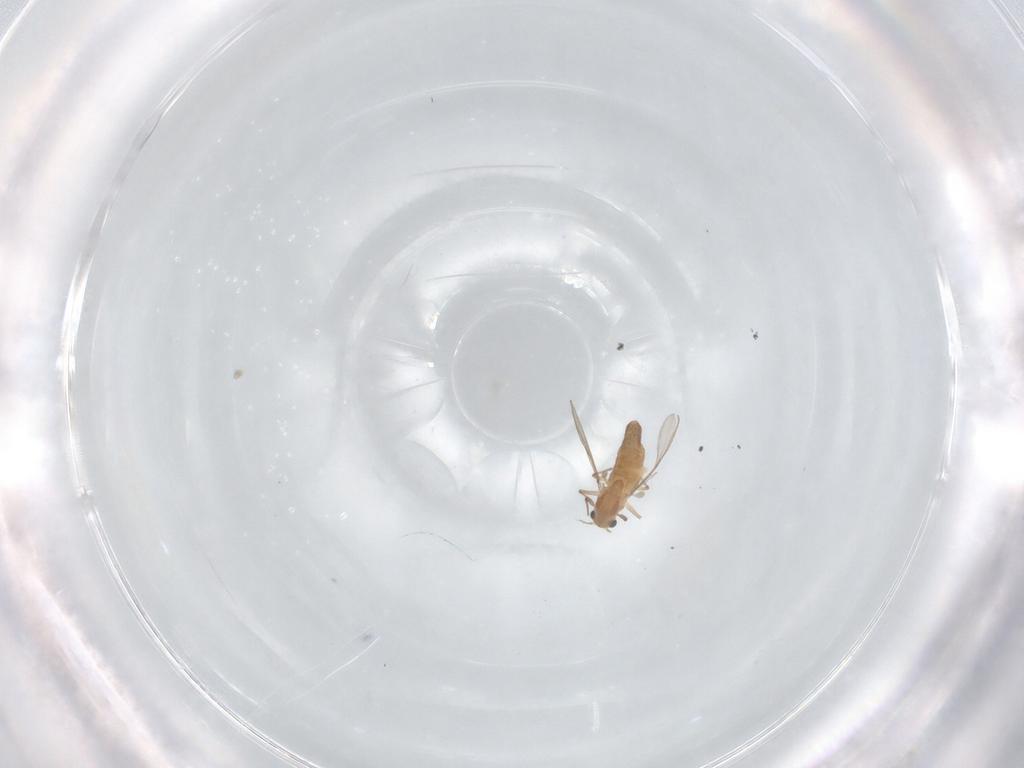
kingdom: Animalia
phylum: Arthropoda
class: Insecta
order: Diptera
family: Chironomidae
